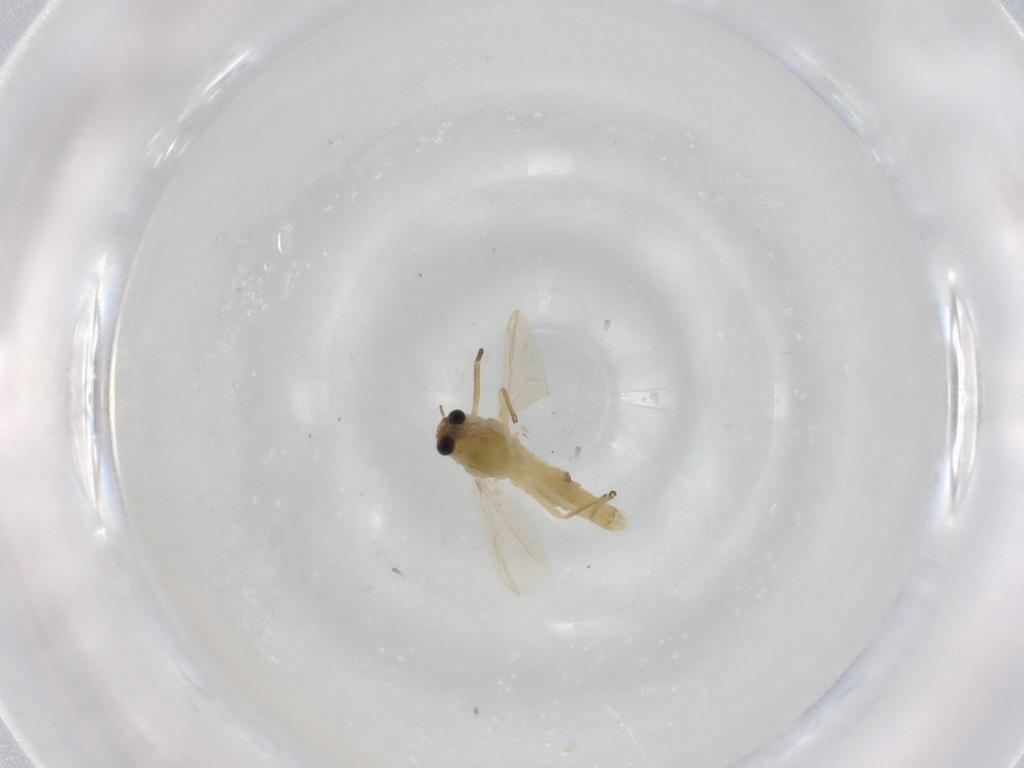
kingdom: Animalia
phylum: Arthropoda
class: Insecta
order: Diptera
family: Chironomidae
